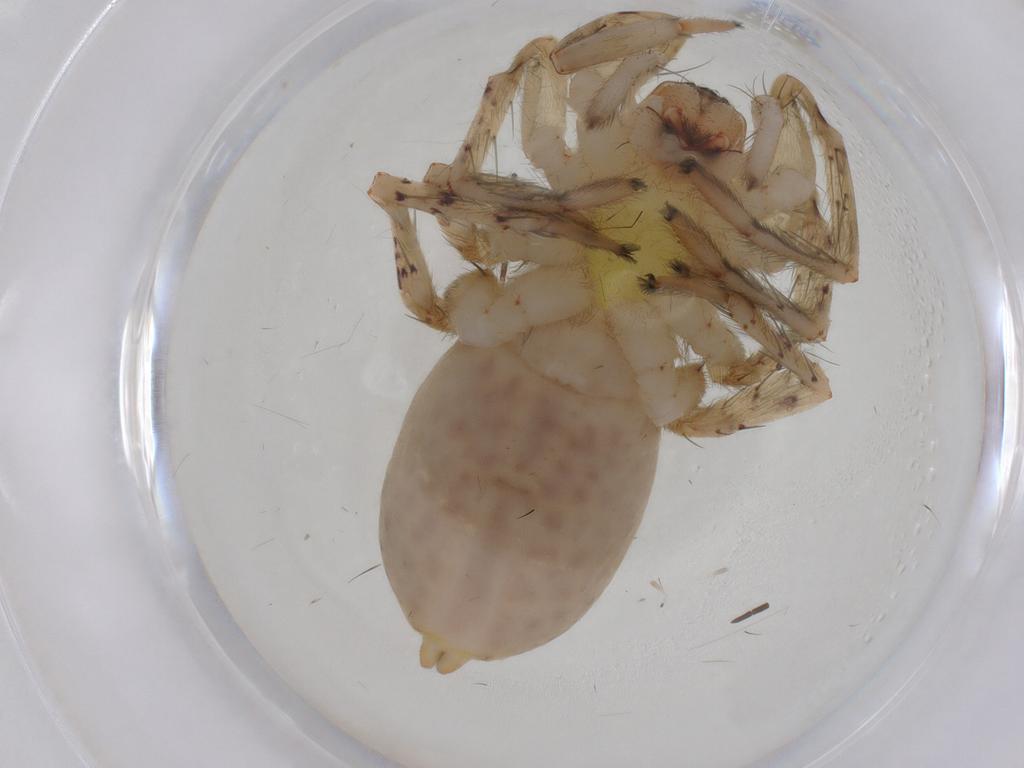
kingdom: Animalia
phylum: Arthropoda
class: Arachnida
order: Araneae
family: Anyphaenidae
